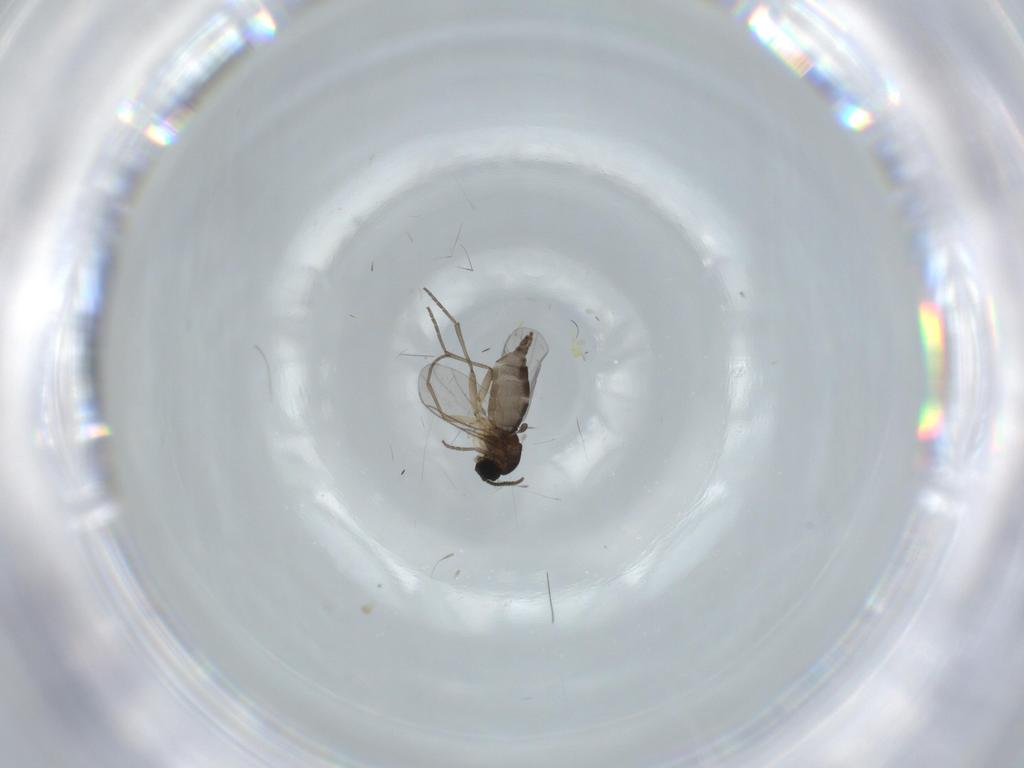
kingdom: Animalia
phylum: Arthropoda
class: Insecta
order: Diptera
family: Sciaridae
